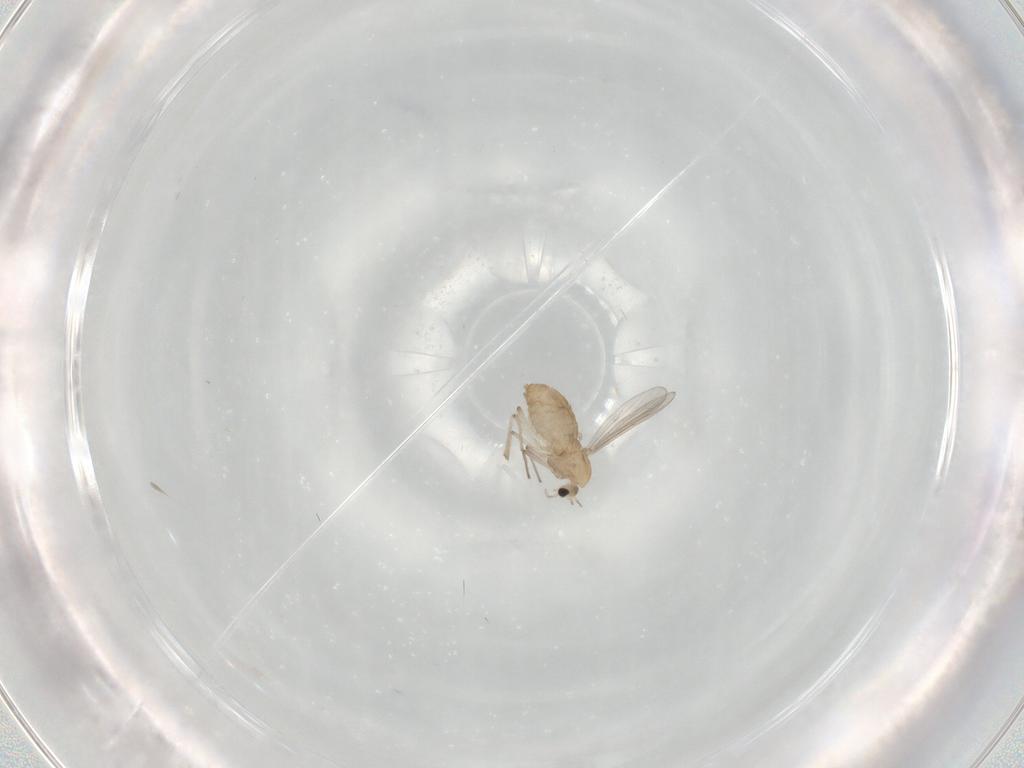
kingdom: Animalia
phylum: Arthropoda
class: Insecta
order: Diptera
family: Chironomidae
